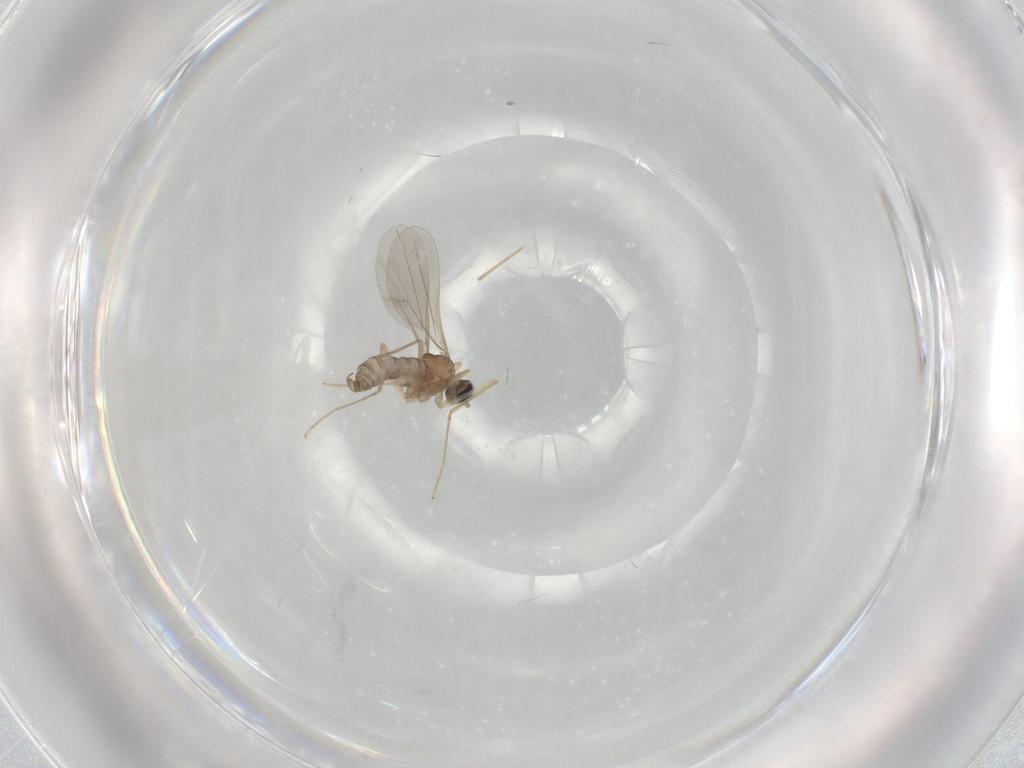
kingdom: Animalia
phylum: Arthropoda
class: Insecta
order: Diptera
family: Cecidomyiidae
